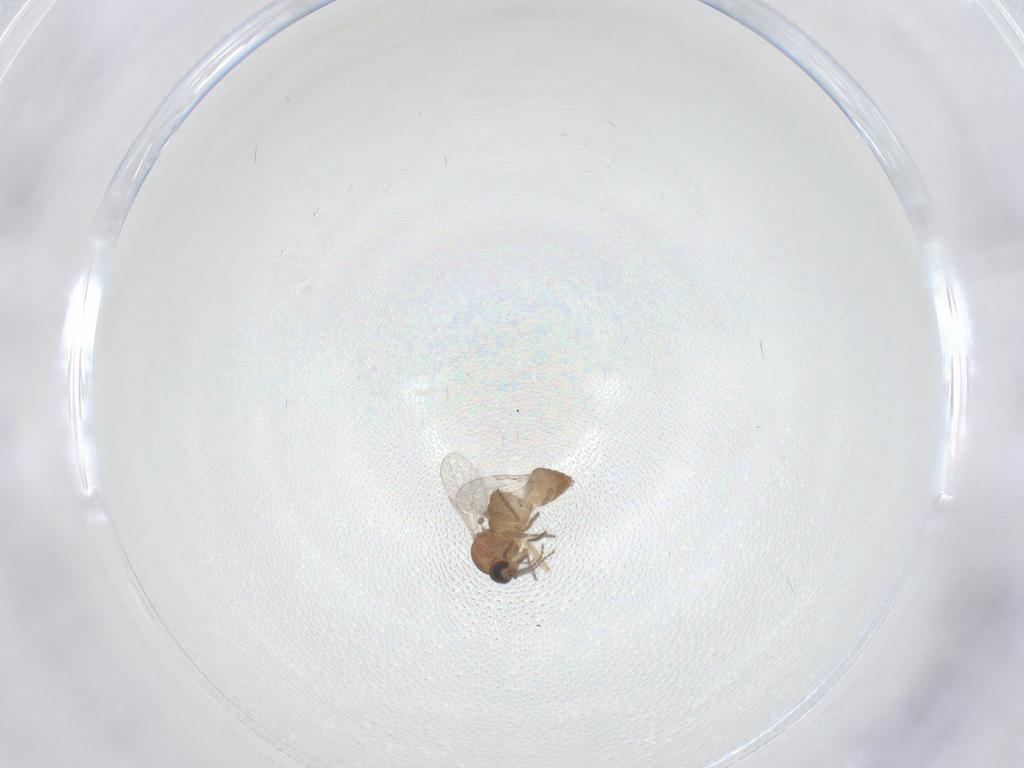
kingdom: Animalia
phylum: Arthropoda
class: Insecta
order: Diptera
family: Ceratopogonidae
